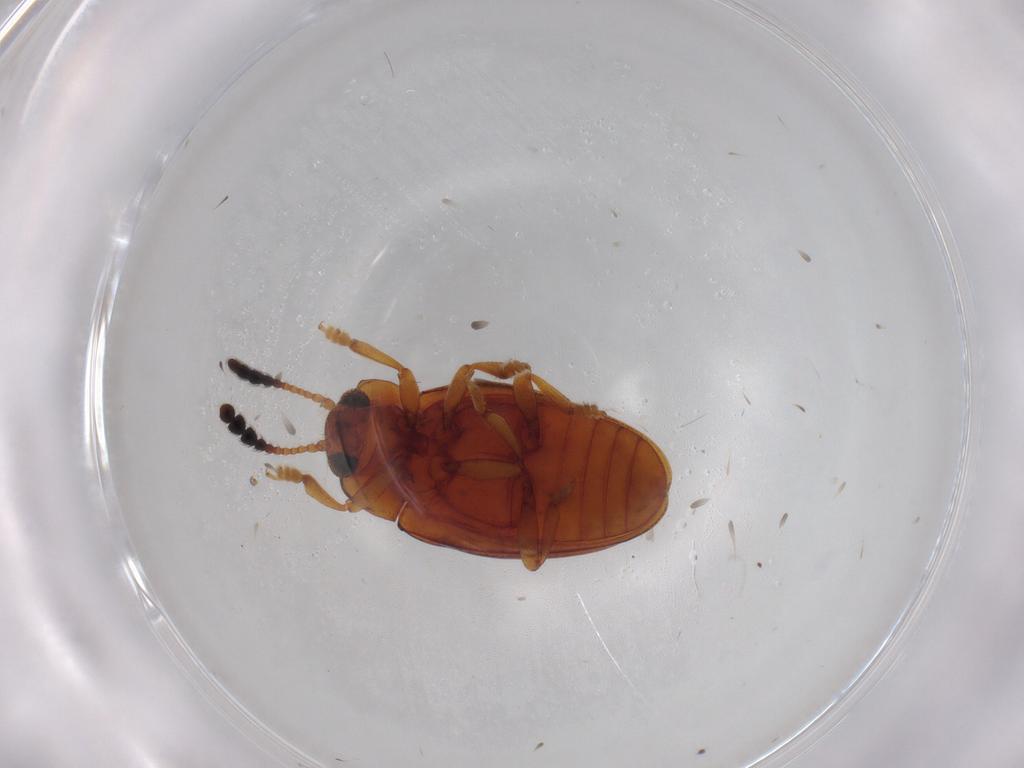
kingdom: Animalia
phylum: Arthropoda
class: Insecta
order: Coleoptera
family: Erotylidae
